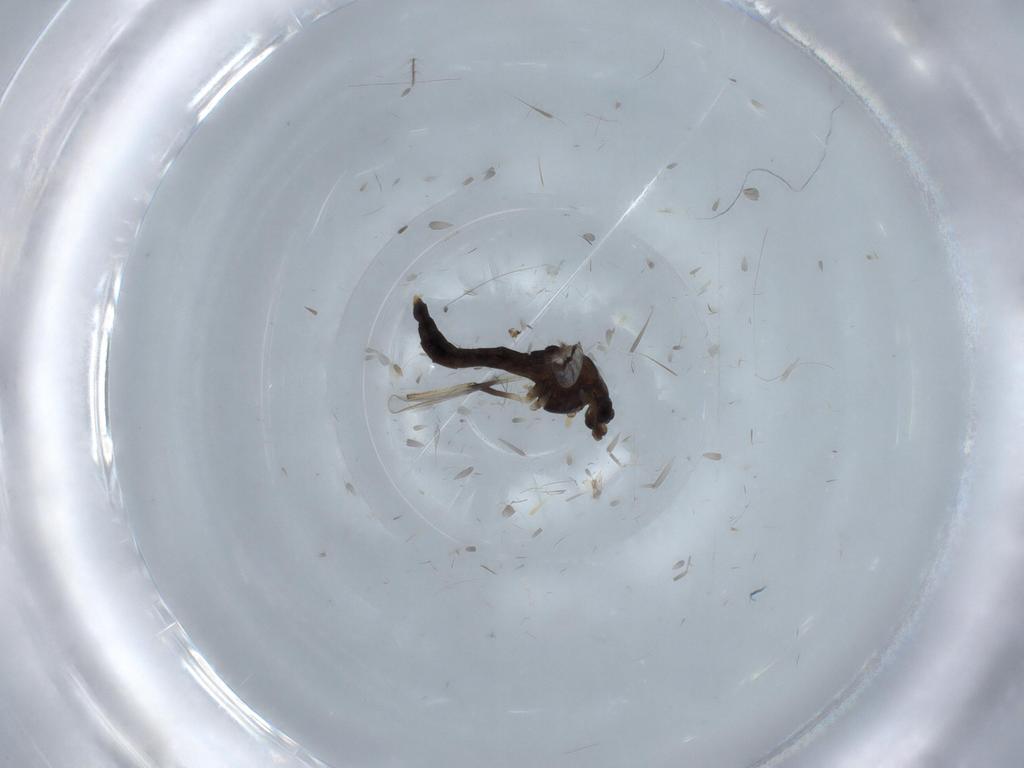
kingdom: Animalia
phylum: Arthropoda
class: Insecta
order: Diptera
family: Chironomidae
